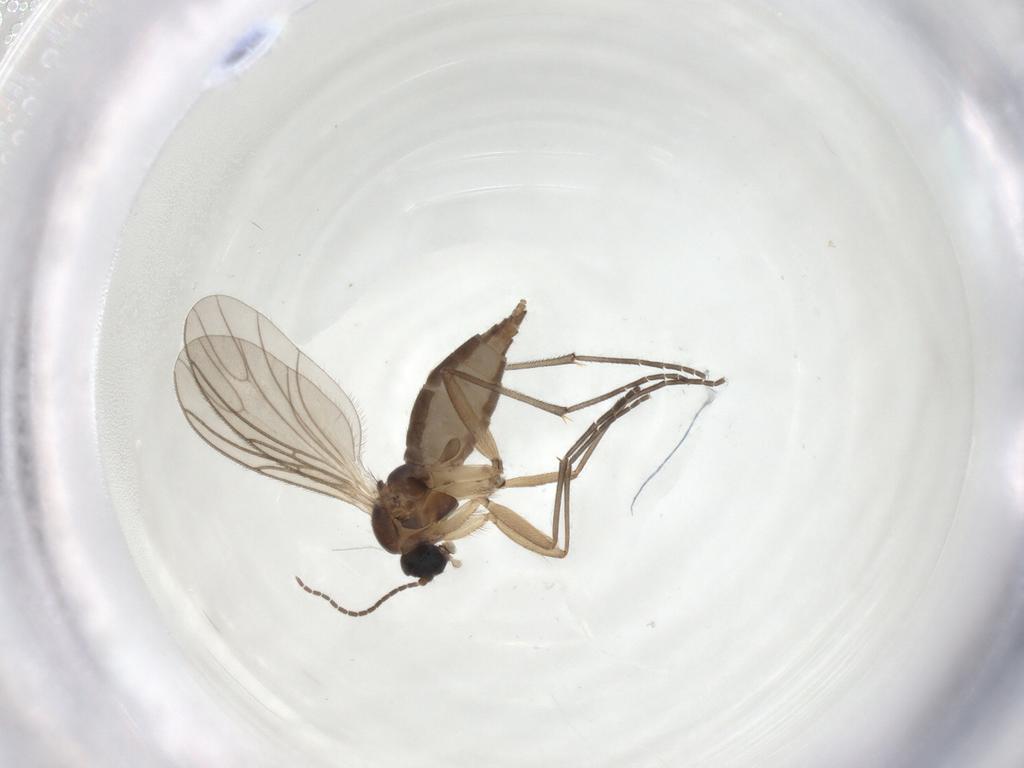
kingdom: Animalia
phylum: Arthropoda
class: Insecta
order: Diptera
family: Sciaridae
